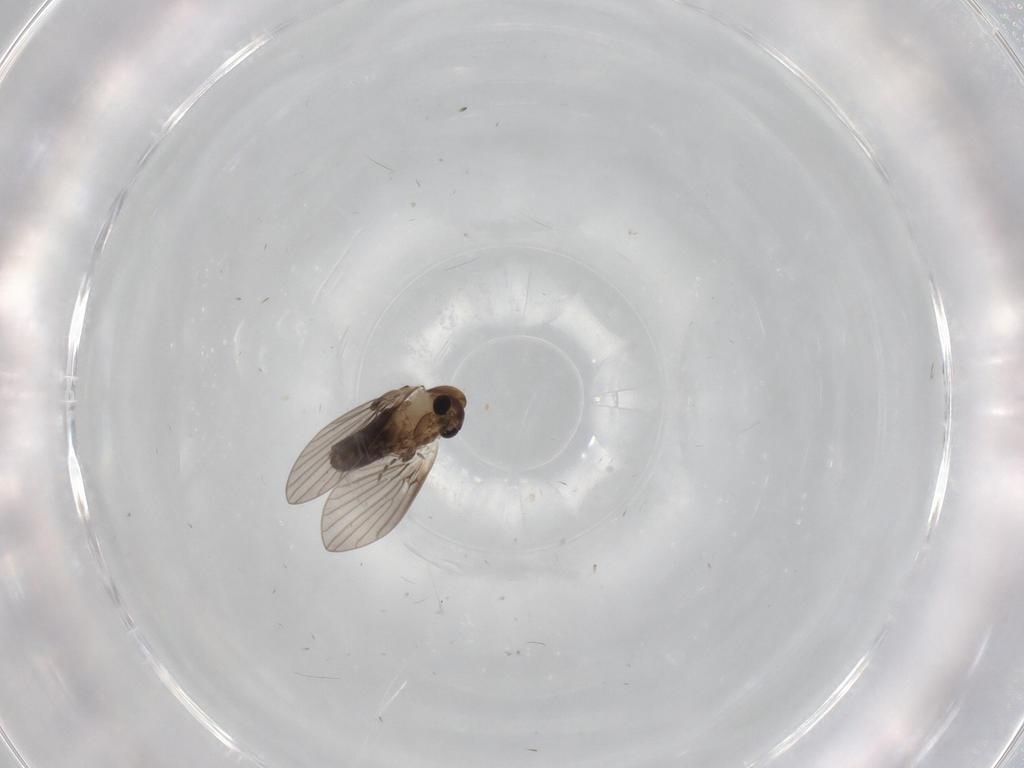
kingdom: Animalia
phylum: Arthropoda
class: Insecta
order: Diptera
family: Psychodidae
